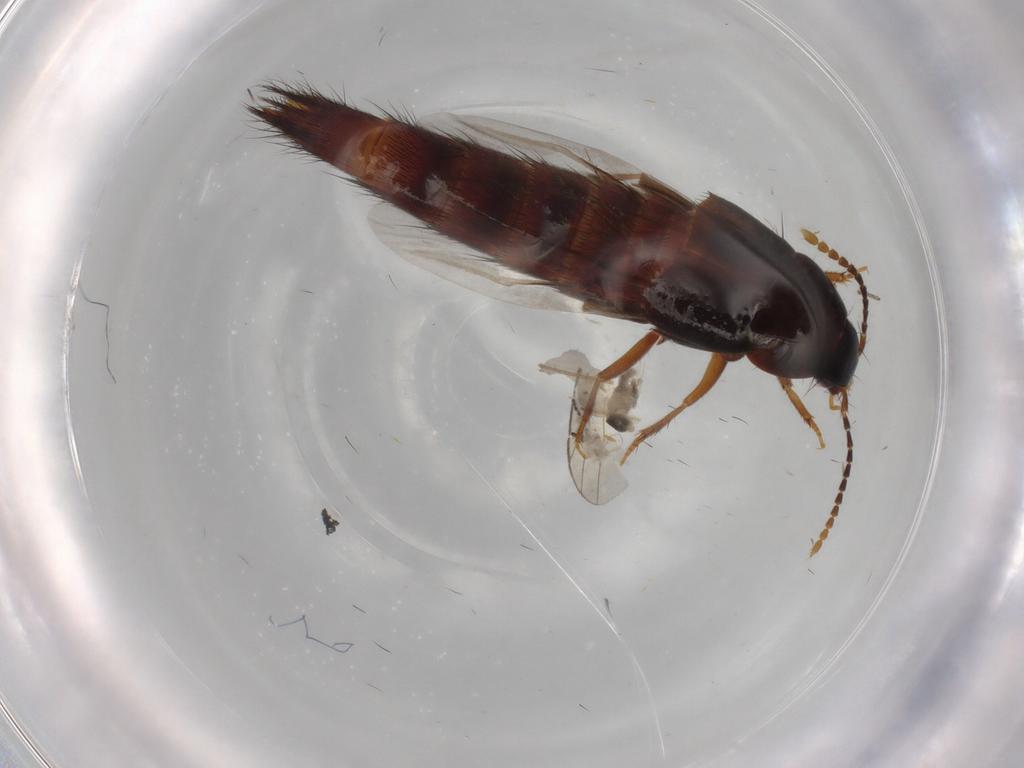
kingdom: Animalia
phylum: Arthropoda
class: Insecta
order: Coleoptera
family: Staphylinidae
